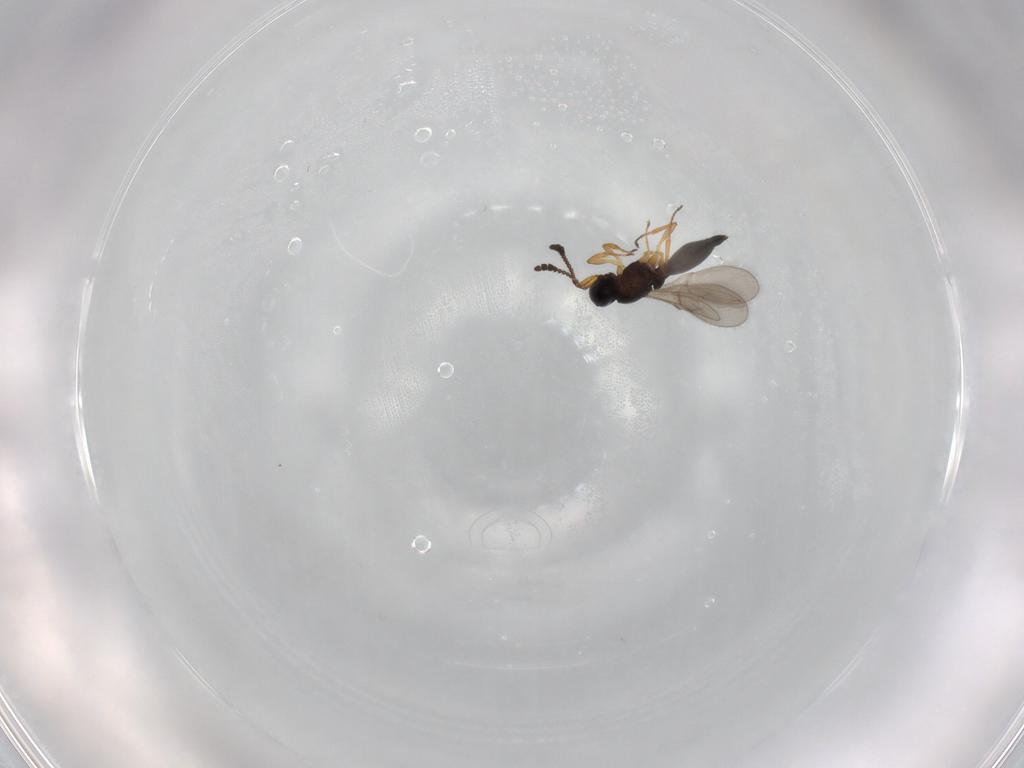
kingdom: Animalia
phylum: Arthropoda
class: Insecta
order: Hymenoptera
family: Scelionidae
